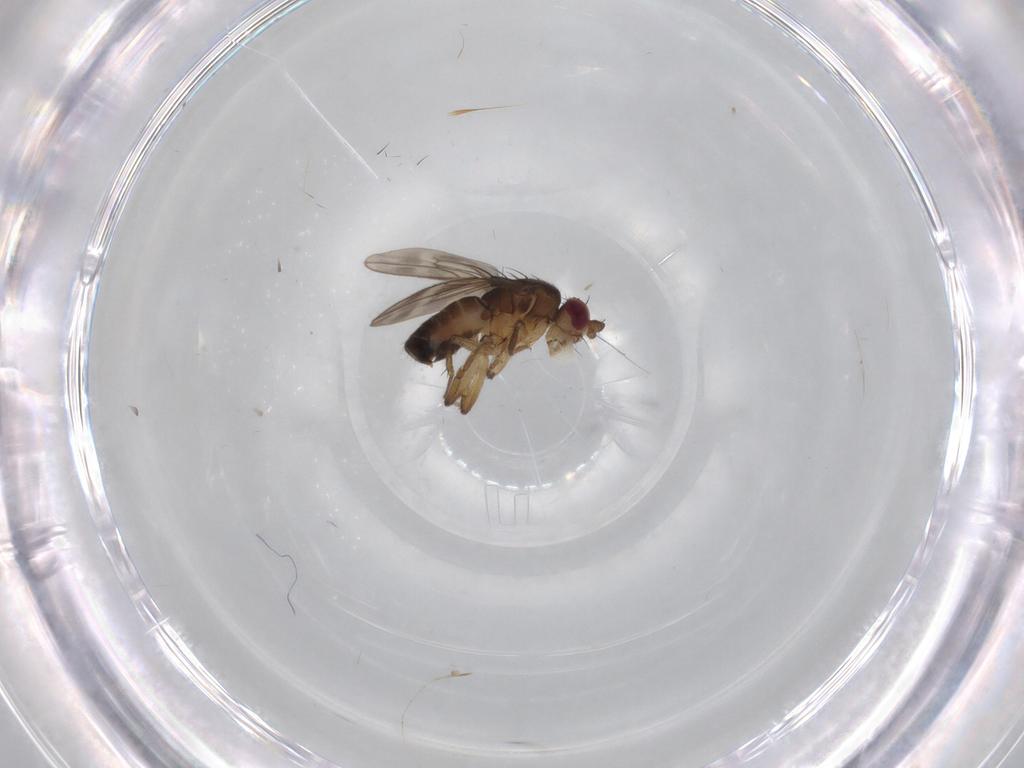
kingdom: Animalia
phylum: Arthropoda
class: Insecta
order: Diptera
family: Sphaeroceridae
